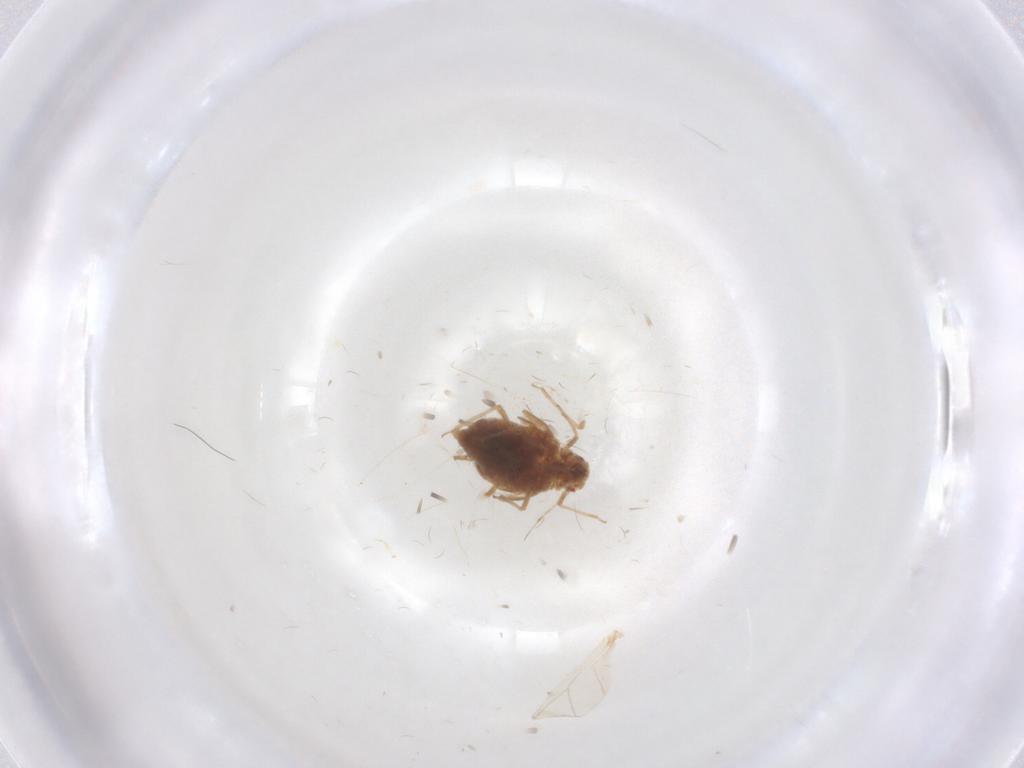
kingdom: Animalia
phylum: Arthropoda
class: Insecta
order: Hemiptera
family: Aphididae
